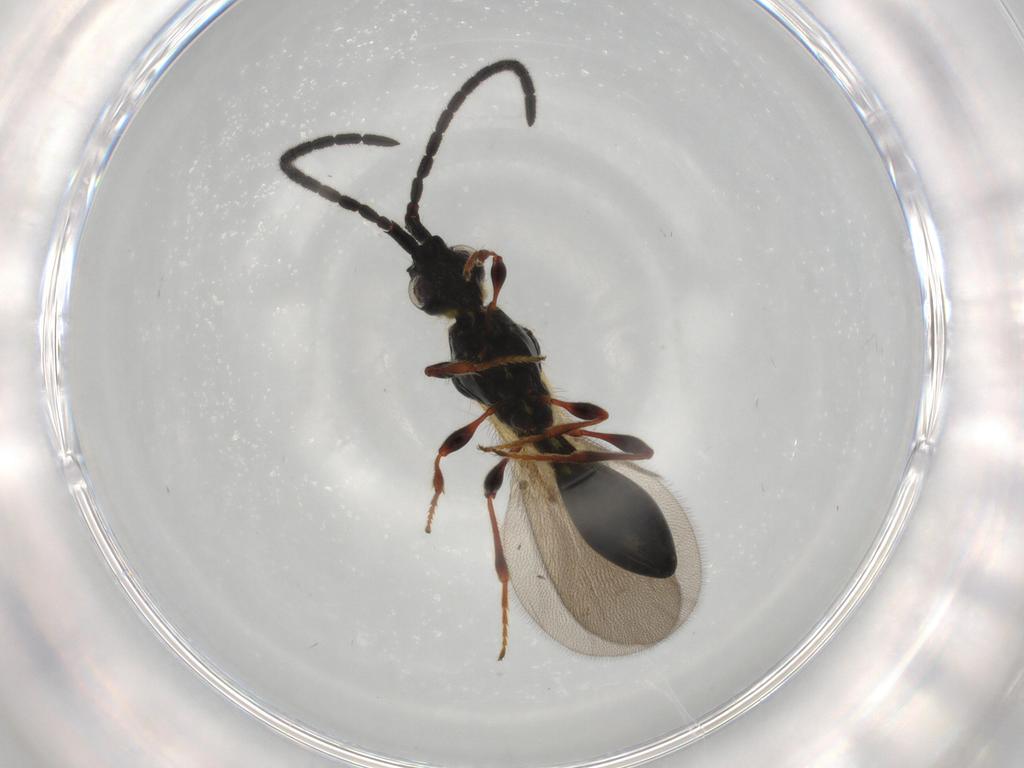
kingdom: Animalia
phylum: Arthropoda
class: Insecta
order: Hymenoptera
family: Diapriidae
